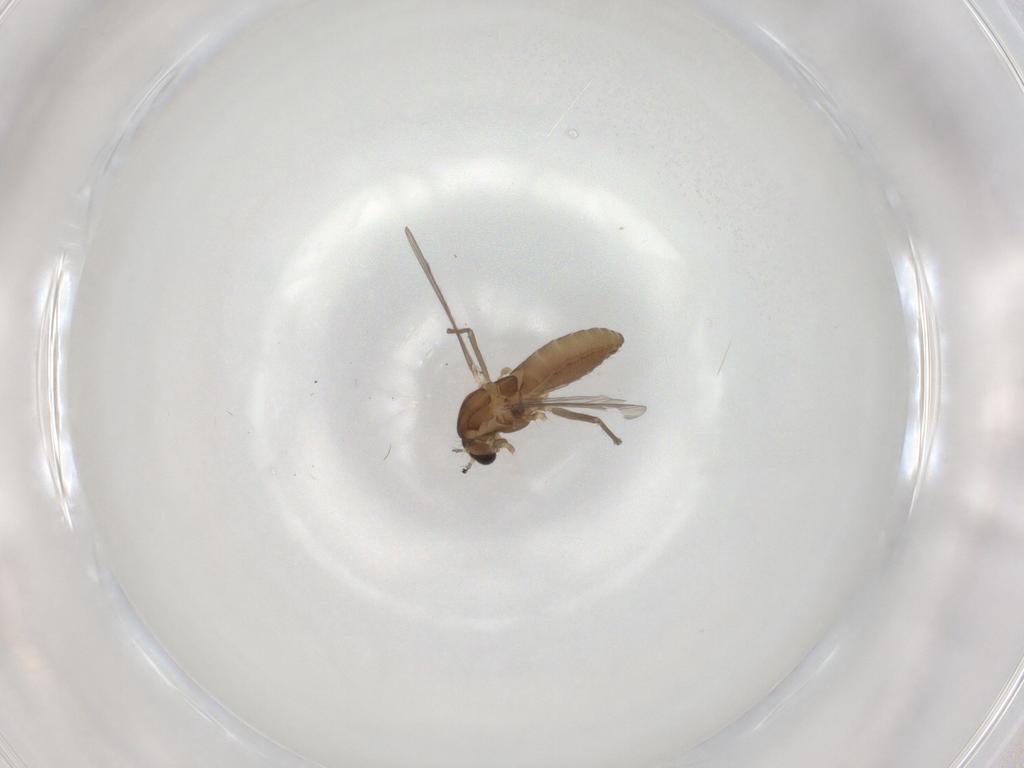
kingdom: Animalia
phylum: Arthropoda
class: Insecta
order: Diptera
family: Chironomidae
